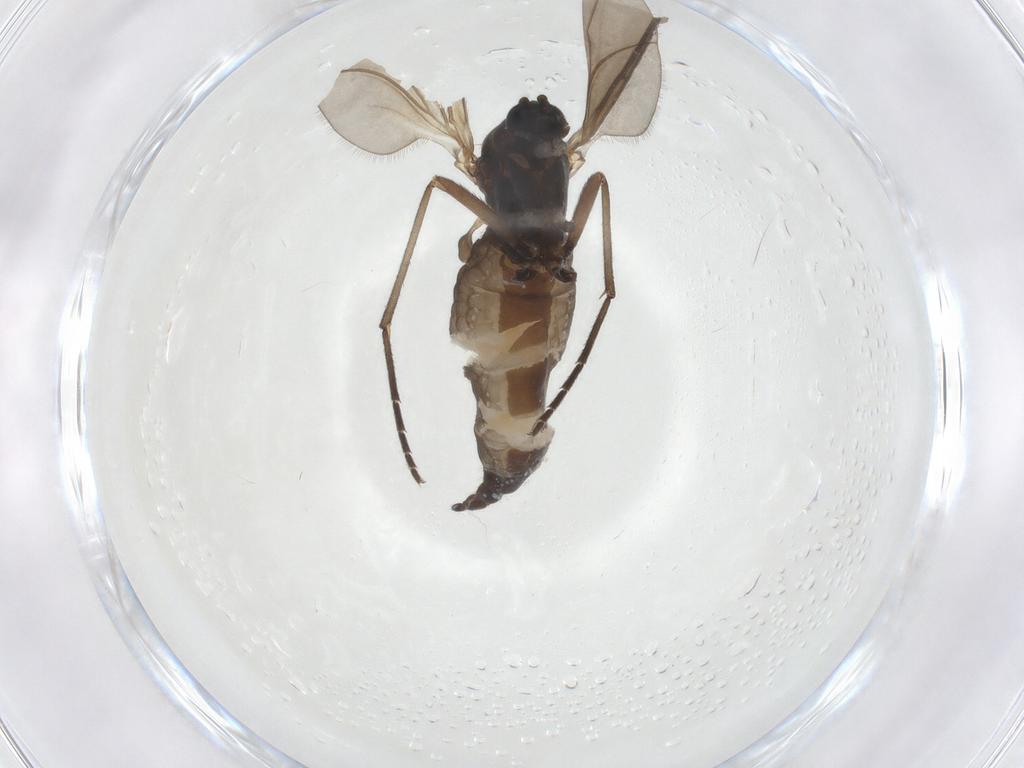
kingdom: Animalia
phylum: Arthropoda
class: Insecta
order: Diptera
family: Sciaridae
